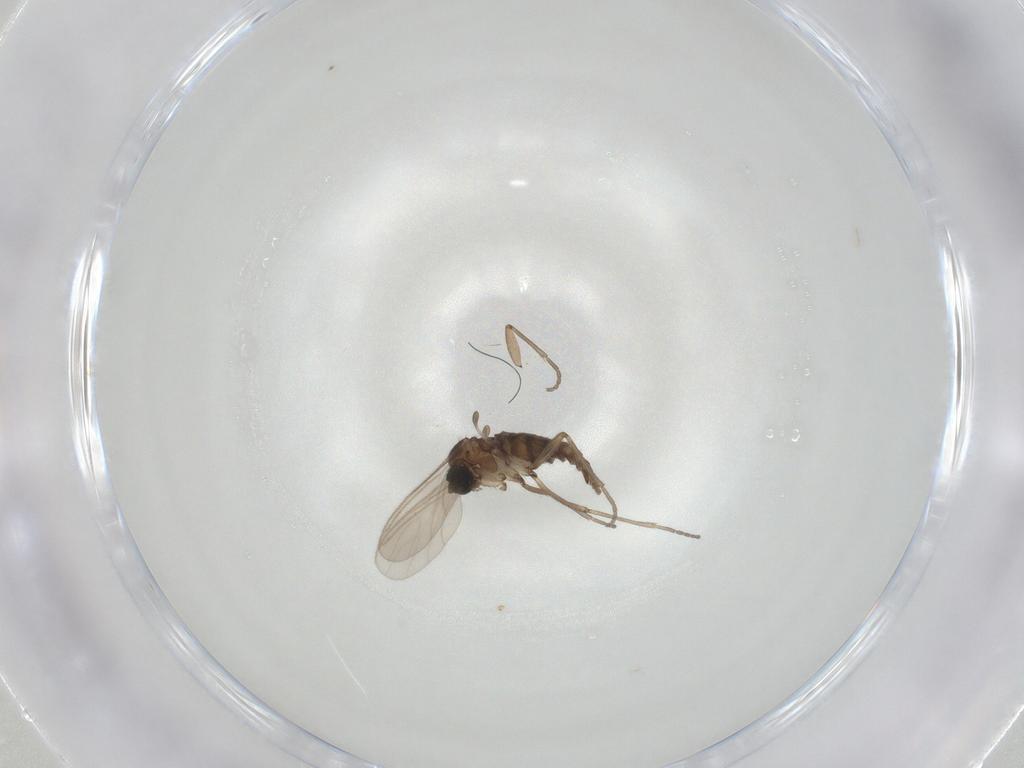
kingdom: Animalia
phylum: Arthropoda
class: Insecta
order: Diptera
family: Sciaridae
